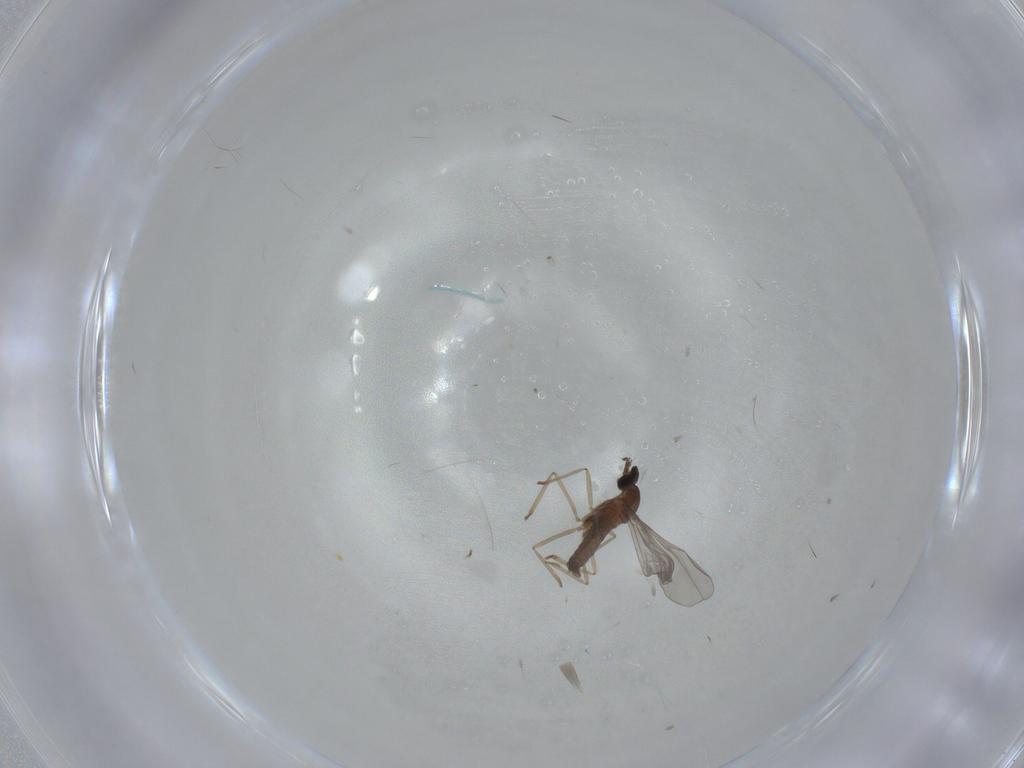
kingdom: Animalia
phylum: Arthropoda
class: Insecta
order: Diptera
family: Cecidomyiidae
